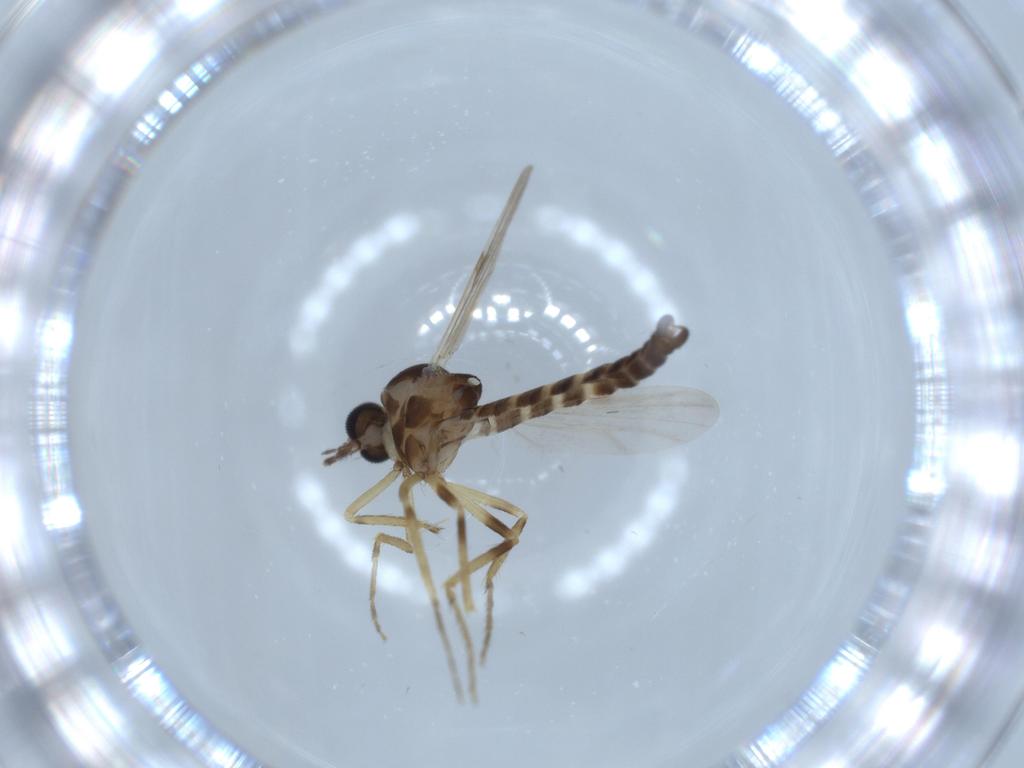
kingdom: Animalia
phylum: Arthropoda
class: Insecta
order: Diptera
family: Ceratopogonidae
